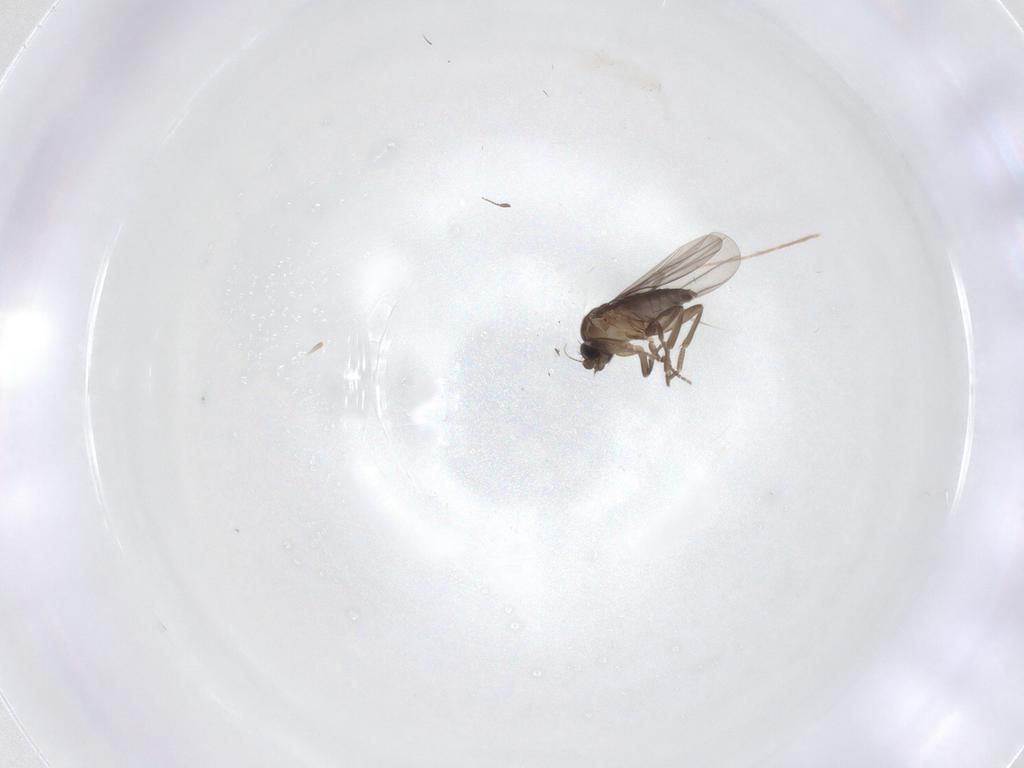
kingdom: Animalia
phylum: Arthropoda
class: Insecta
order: Diptera
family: Chironomidae
